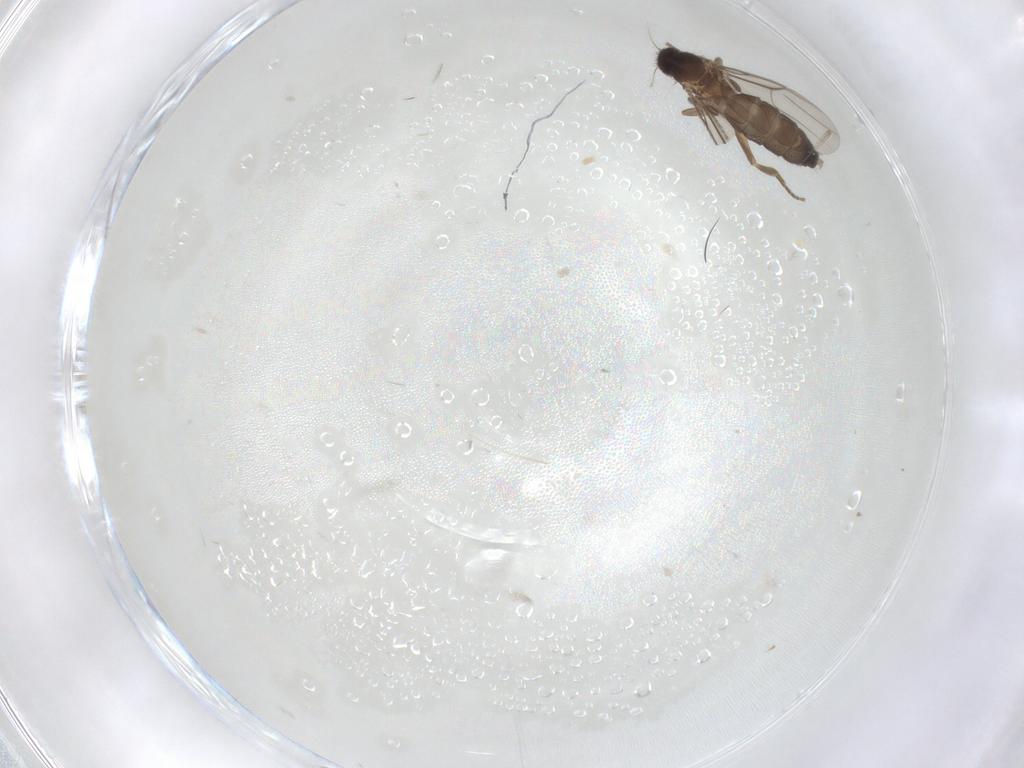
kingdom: Animalia
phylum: Arthropoda
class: Insecta
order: Diptera
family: Phoridae
